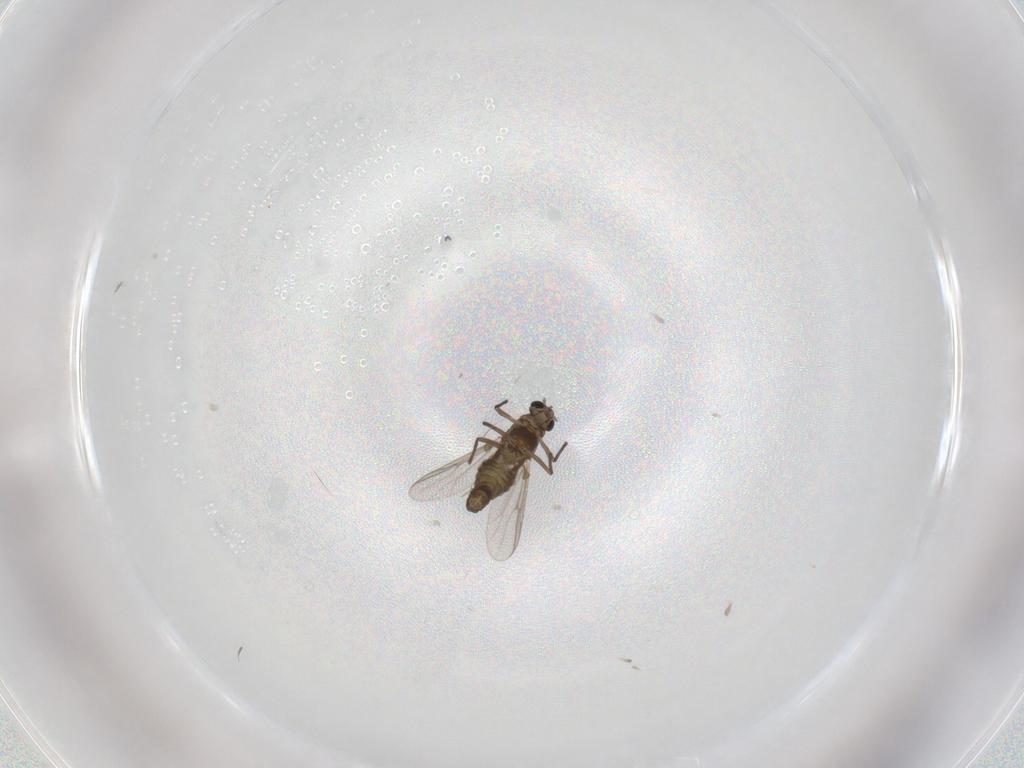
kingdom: Animalia
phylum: Arthropoda
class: Insecta
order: Diptera
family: Chironomidae
